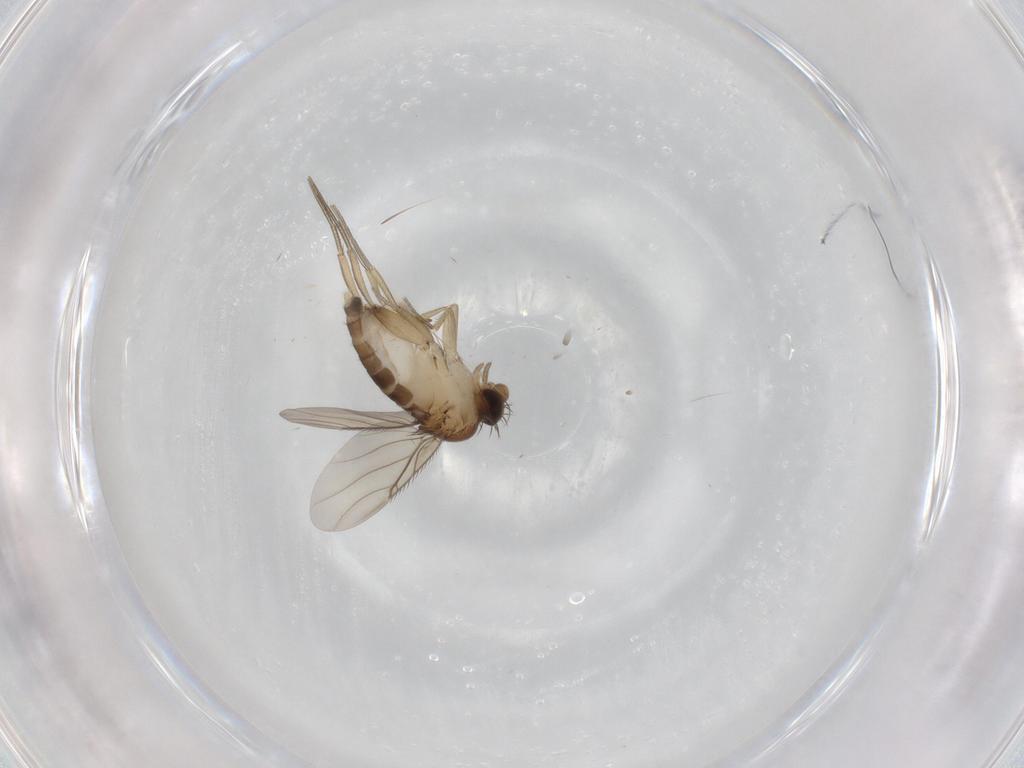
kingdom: Animalia
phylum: Arthropoda
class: Insecta
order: Diptera
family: Phoridae
